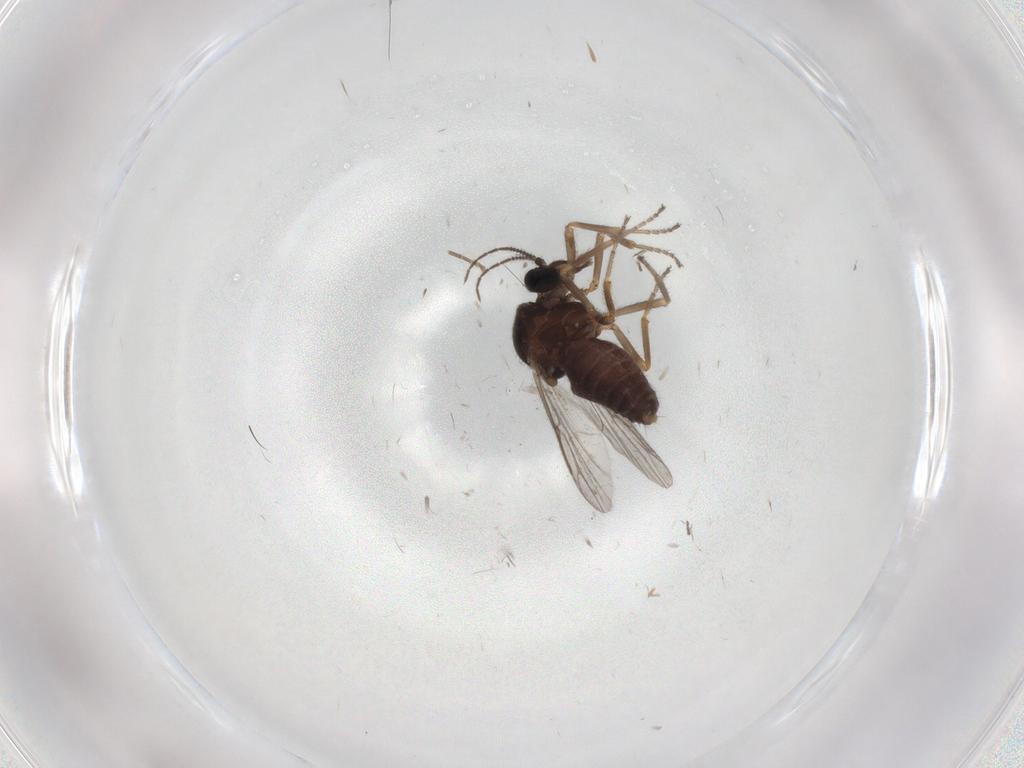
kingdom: Animalia
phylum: Arthropoda
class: Insecta
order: Diptera
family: Ceratopogonidae
